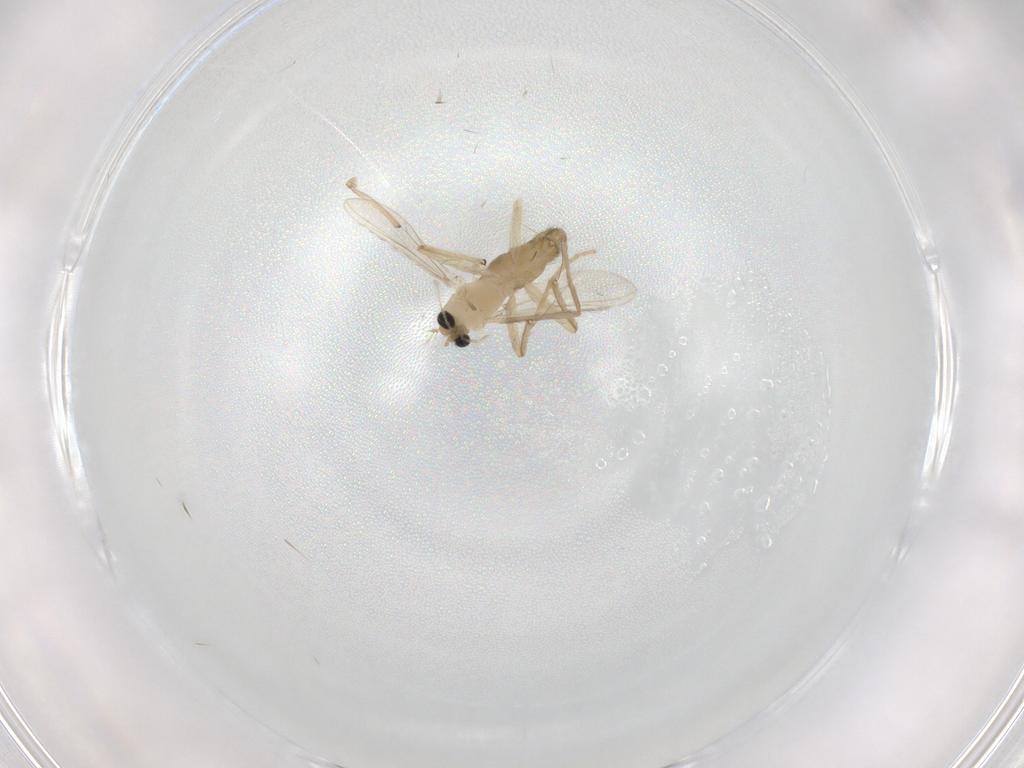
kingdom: Animalia
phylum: Arthropoda
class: Insecta
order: Diptera
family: Chironomidae
